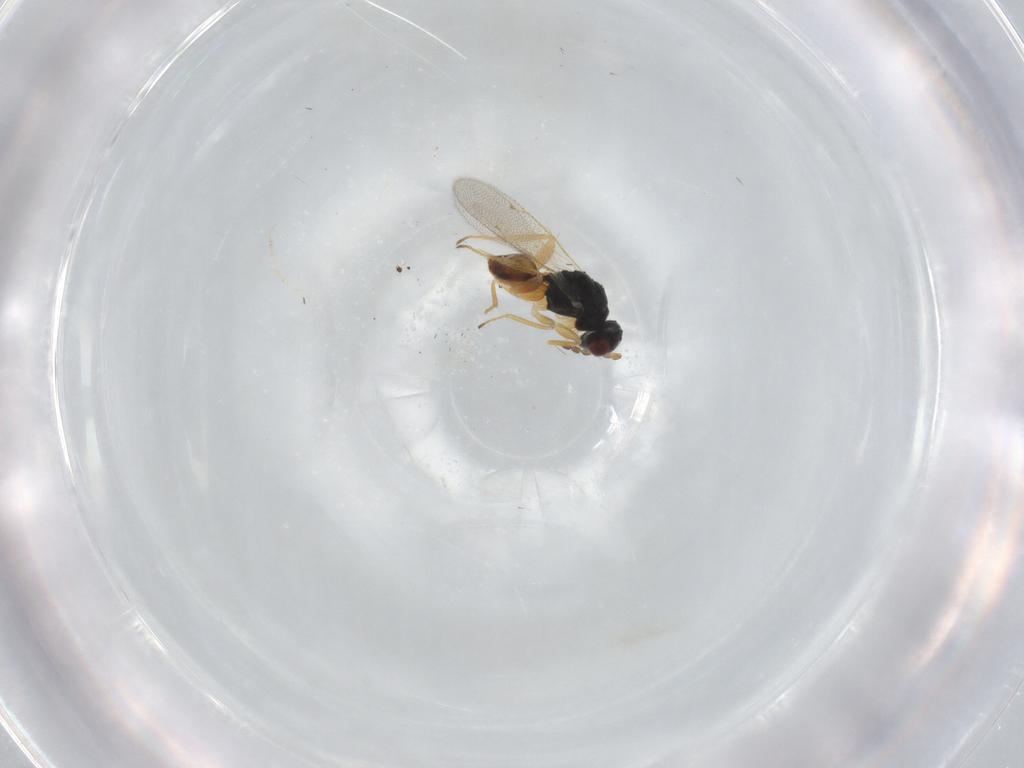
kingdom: Animalia
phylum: Arthropoda
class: Insecta
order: Hymenoptera
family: Eulophidae
